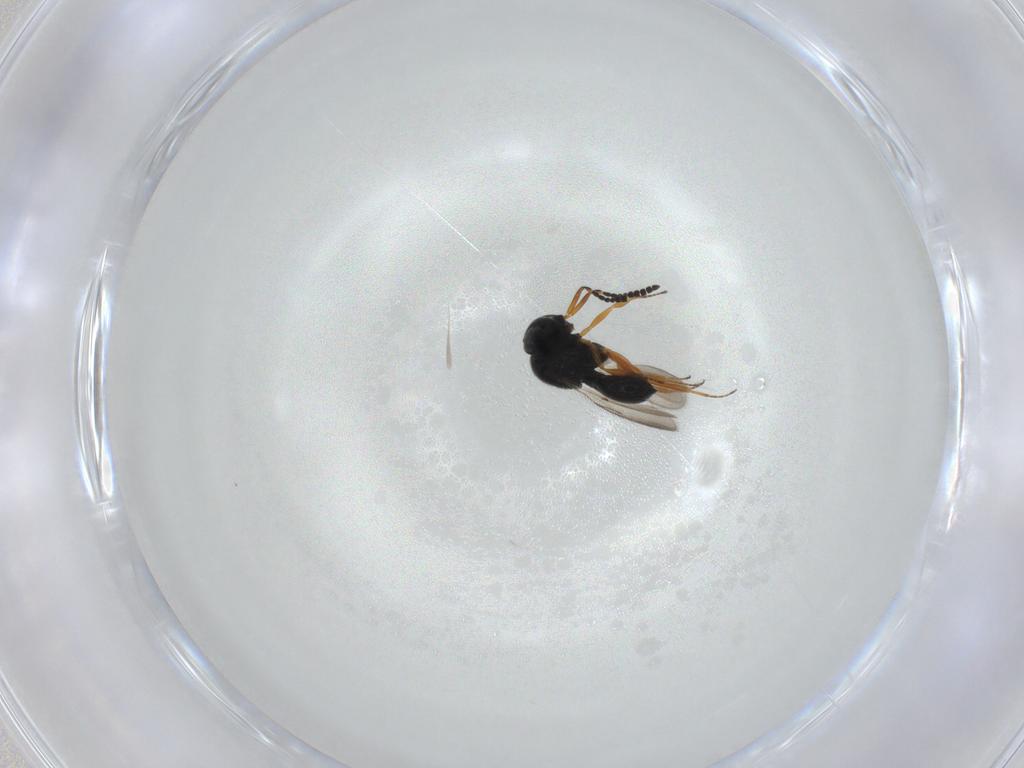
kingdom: Animalia
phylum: Arthropoda
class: Insecta
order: Hymenoptera
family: Scelionidae
